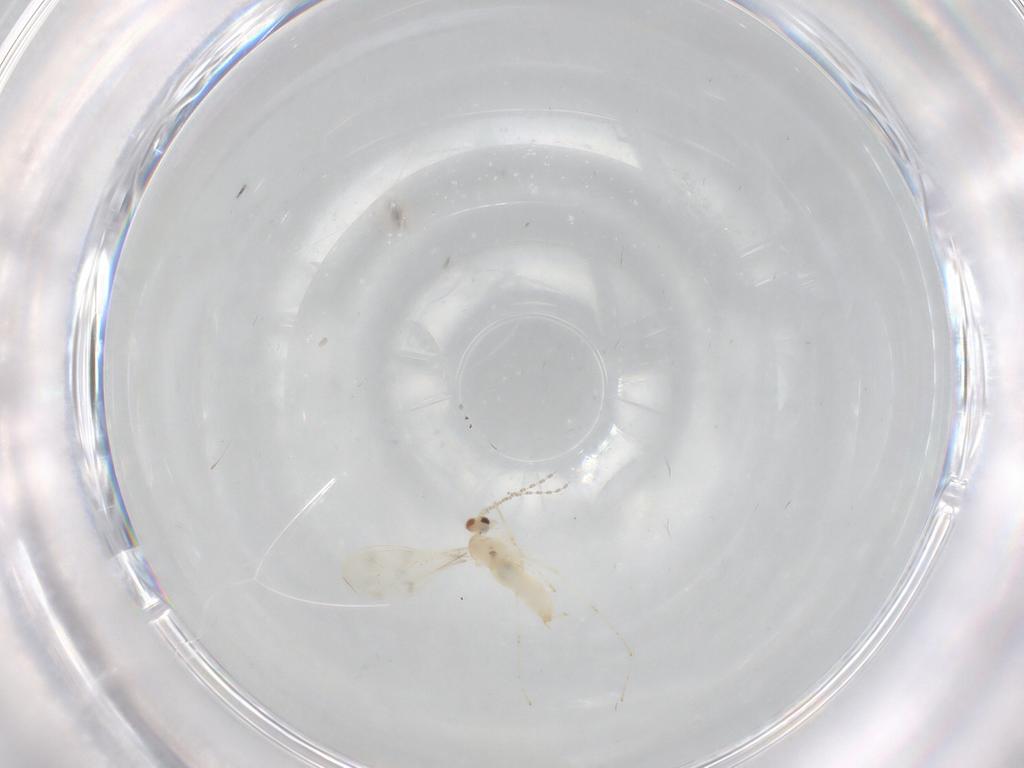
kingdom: Animalia
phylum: Arthropoda
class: Insecta
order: Diptera
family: Cecidomyiidae
